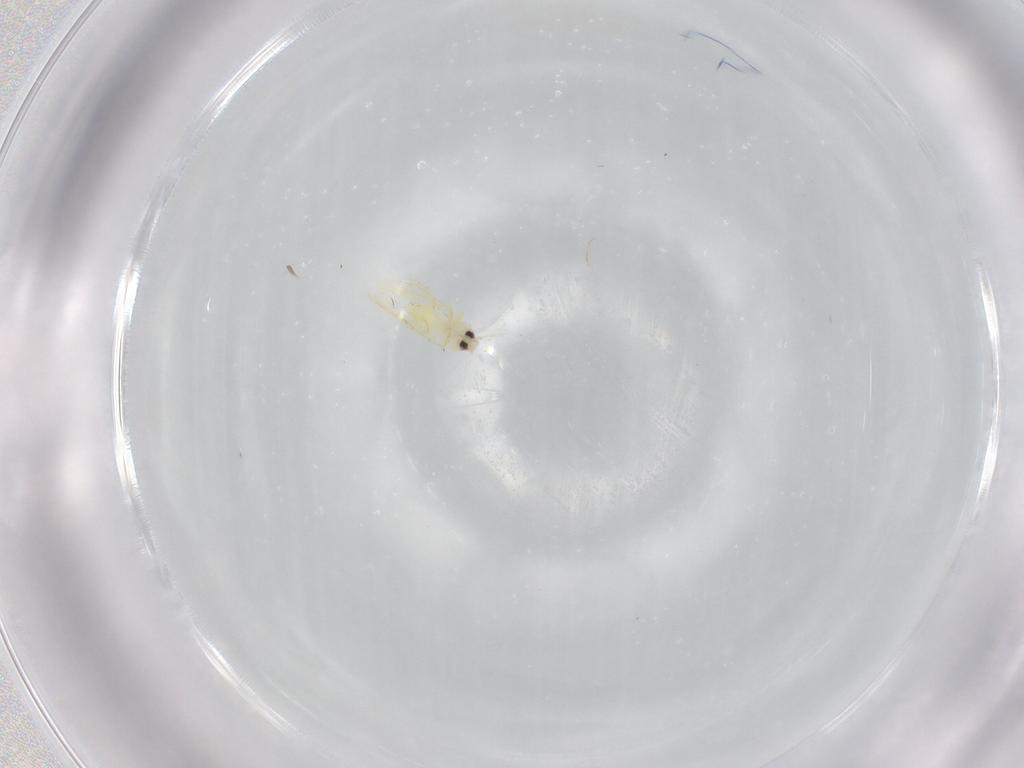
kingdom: Animalia
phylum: Arthropoda
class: Insecta
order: Hemiptera
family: Aleyrodidae
